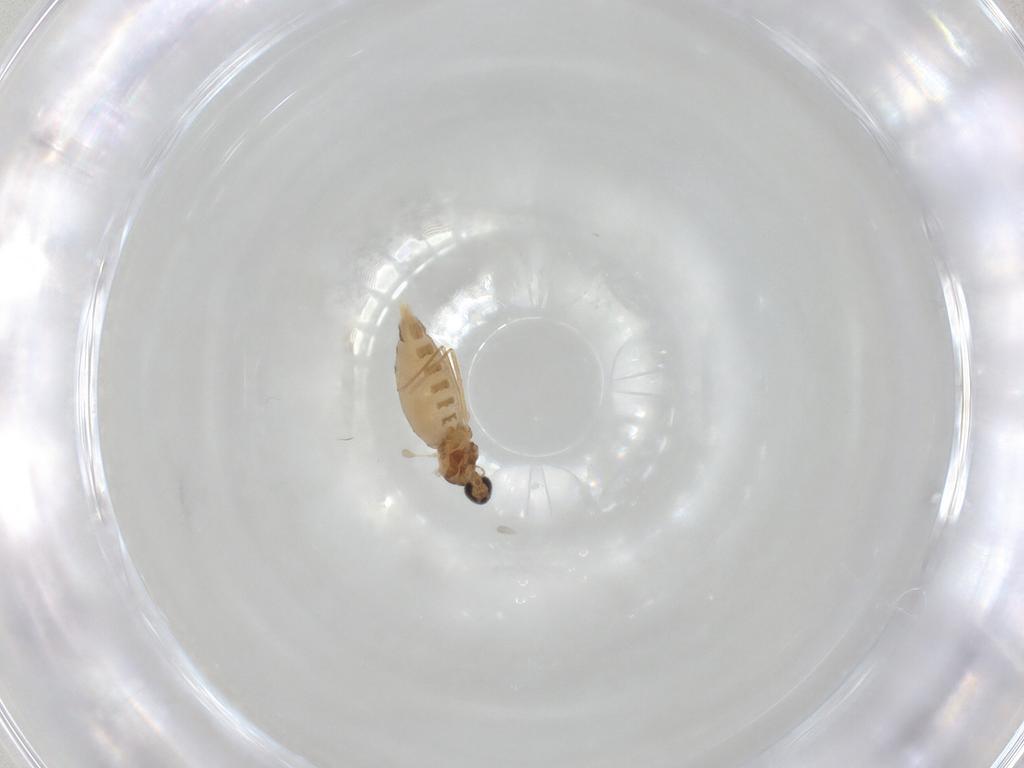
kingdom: Animalia
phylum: Arthropoda
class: Insecta
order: Diptera
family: Cecidomyiidae
